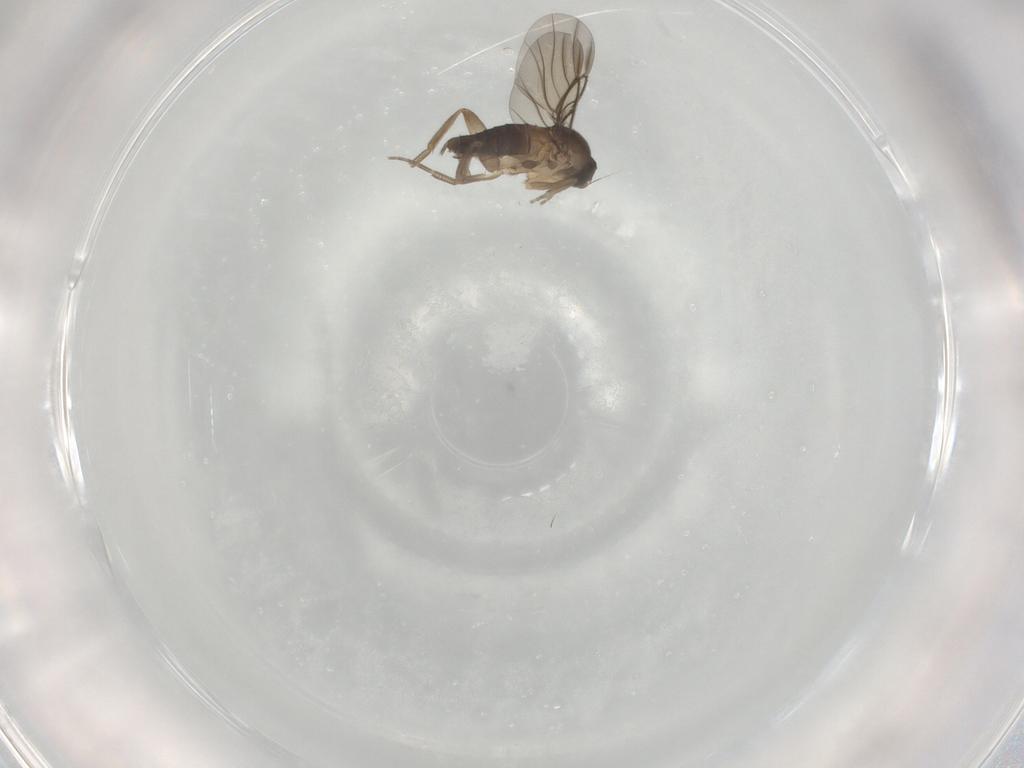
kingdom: Animalia
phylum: Arthropoda
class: Insecta
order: Diptera
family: Phoridae
